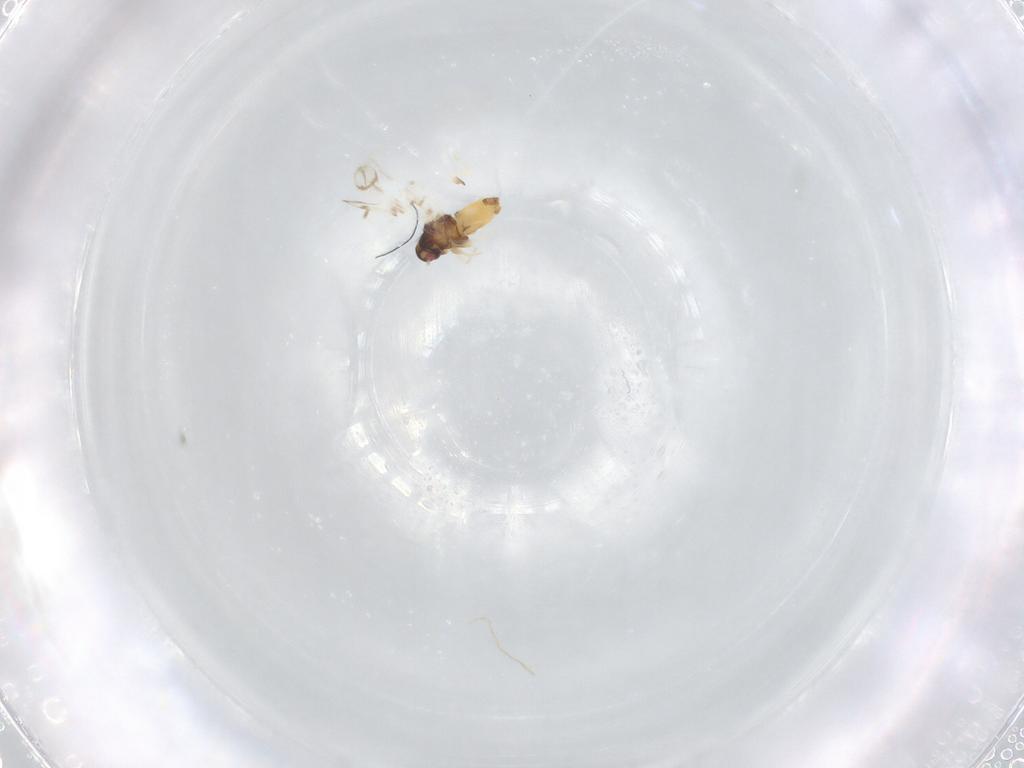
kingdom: Animalia
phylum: Arthropoda
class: Insecta
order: Hemiptera
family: Aleyrodidae
